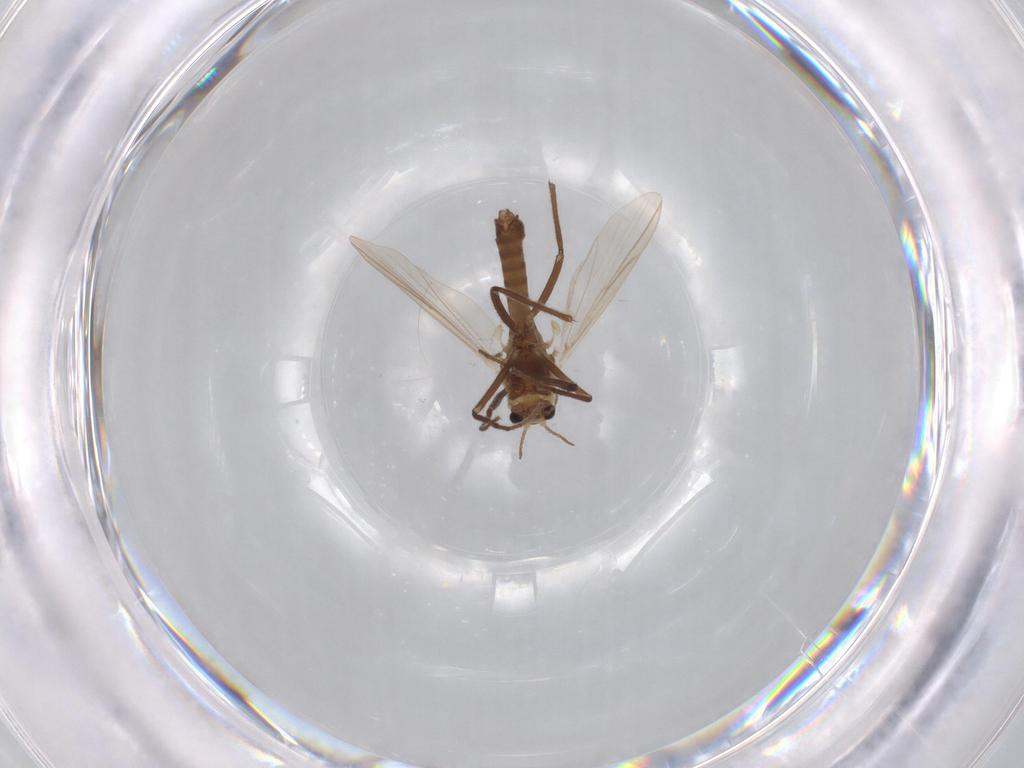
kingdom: Animalia
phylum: Arthropoda
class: Insecta
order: Diptera
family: Chironomidae
